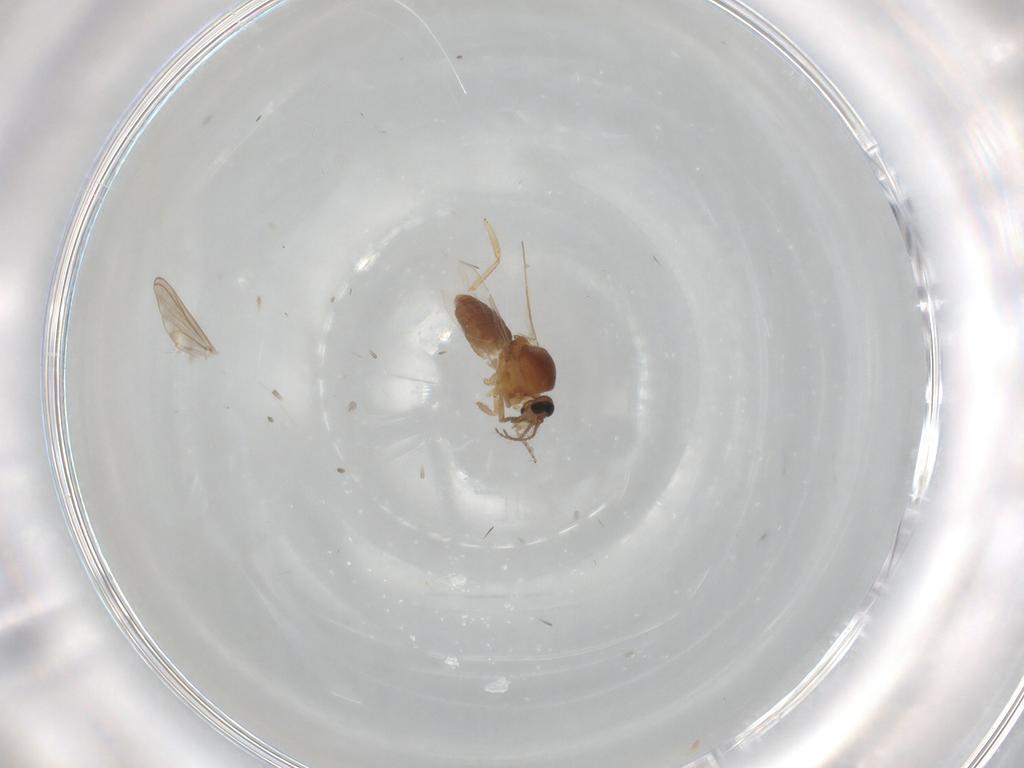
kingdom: Animalia
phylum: Arthropoda
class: Insecta
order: Diptera
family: Ceratopogonidae
